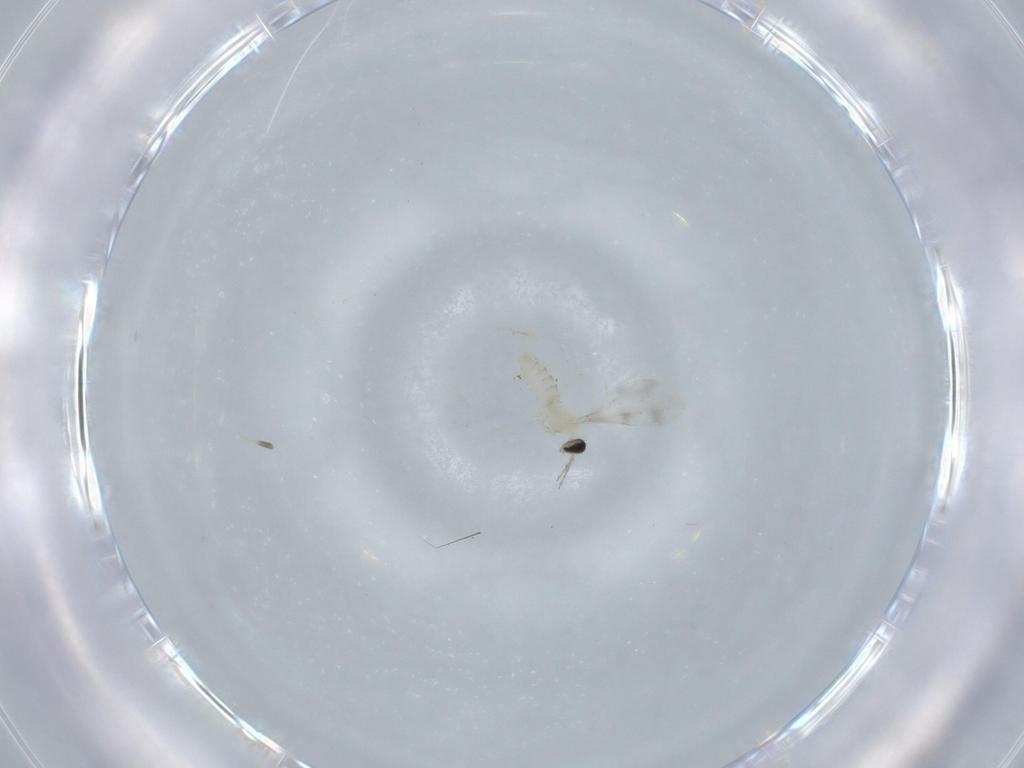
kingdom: Animalia
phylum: Arthropoda
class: Insecta
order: Diptera
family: Cecidomyiidae
